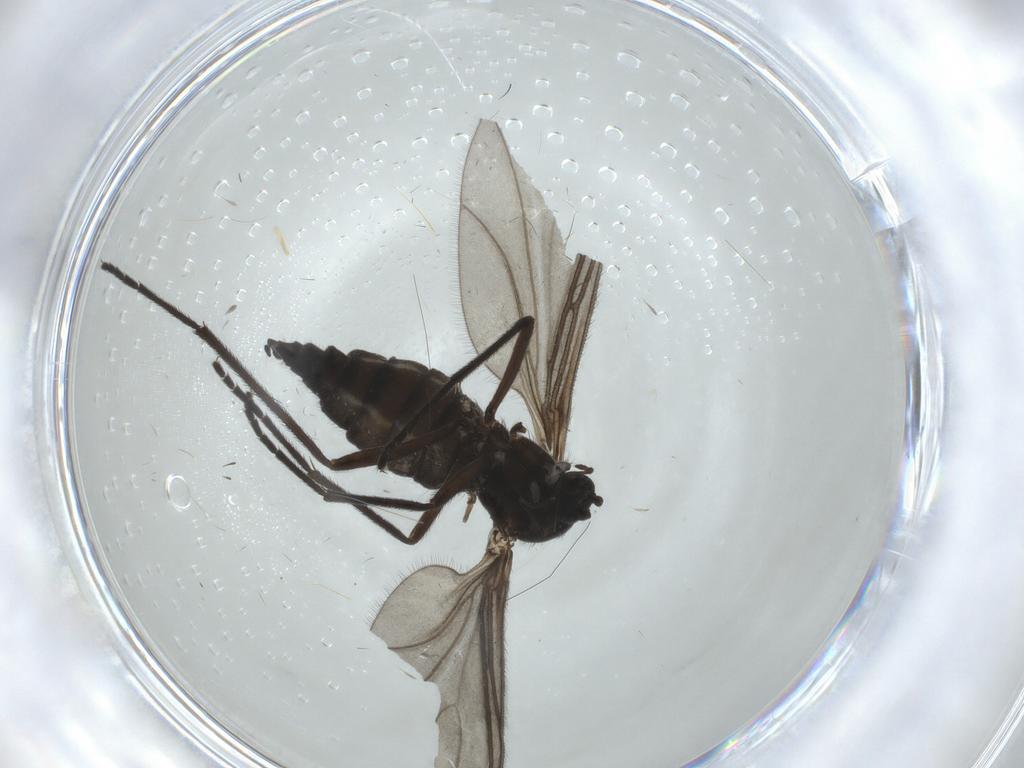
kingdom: Animalia
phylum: Arthropoda
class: Insecta
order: Diptera
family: Sciaridae
